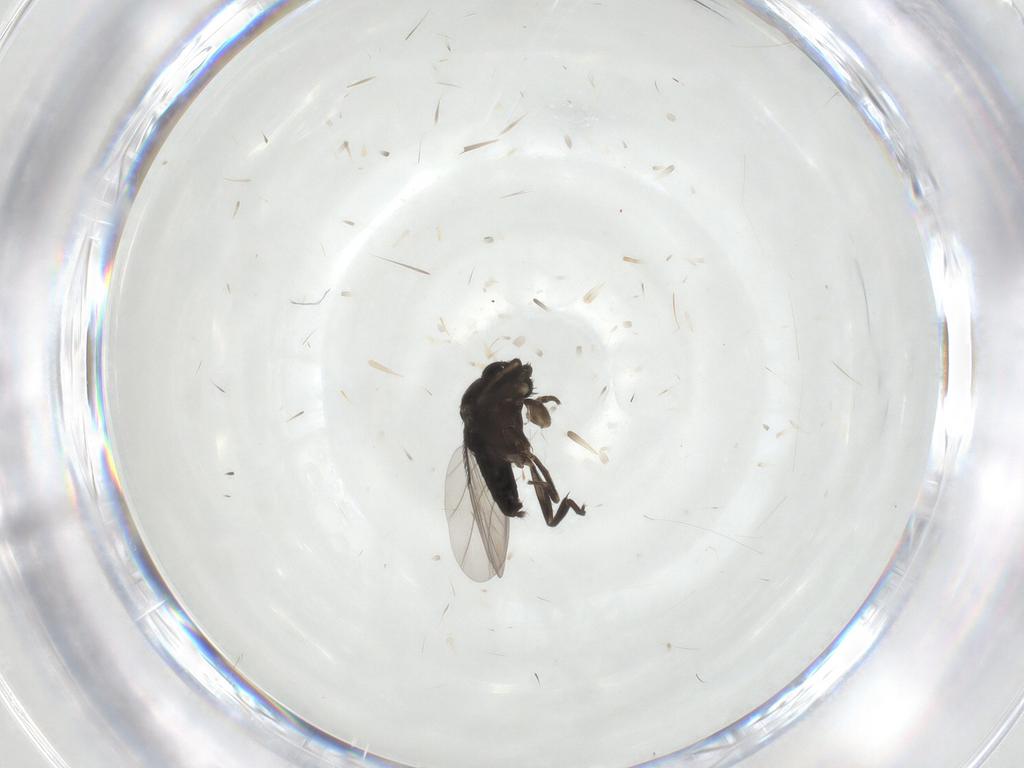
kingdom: Animalia
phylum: Arthropoda
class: Insecta
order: Diptera
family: Phoridae
